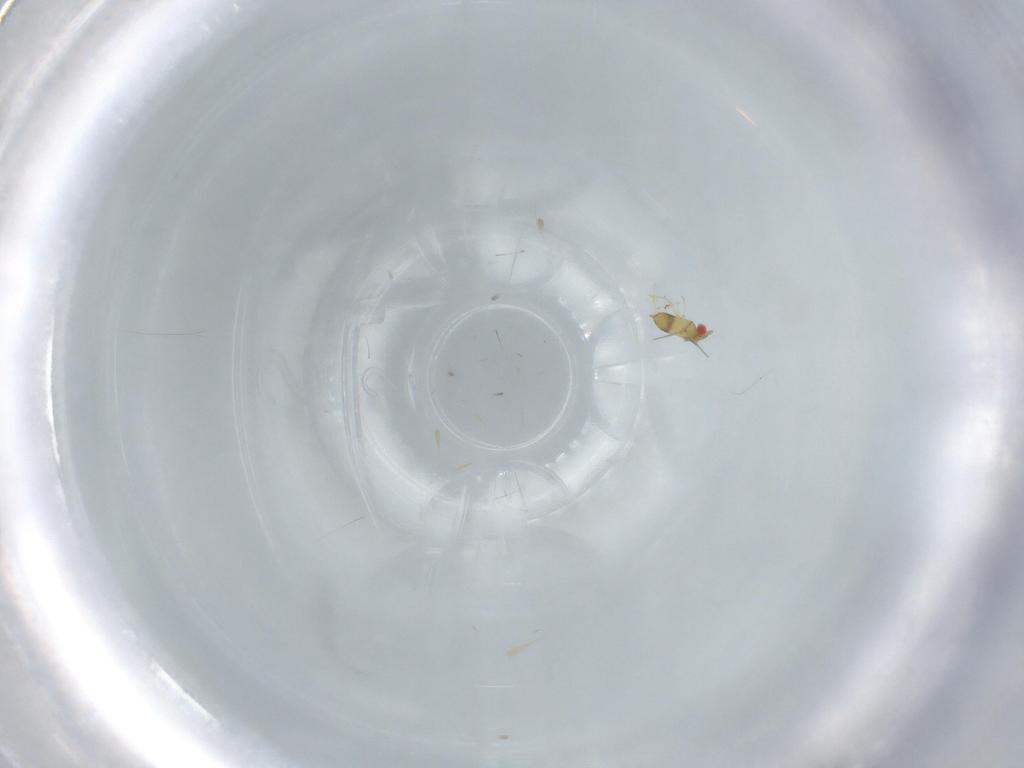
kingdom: Animalia
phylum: Arthropoda
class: Insecta
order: Hymenoptera
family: Trichogrammatidae
